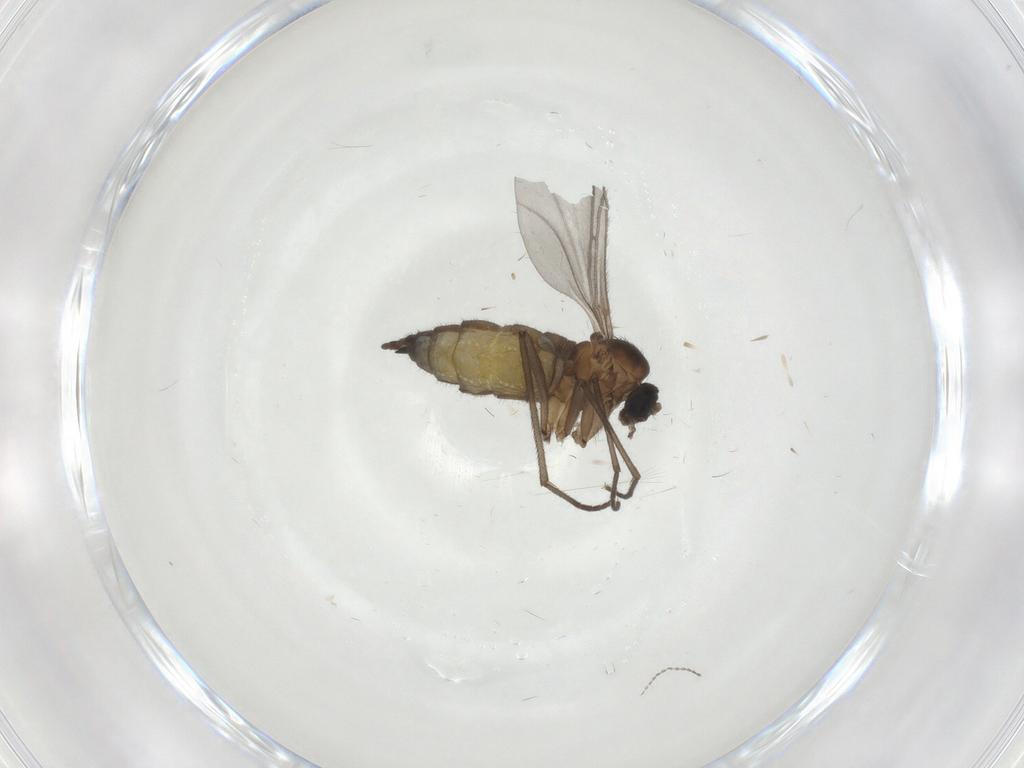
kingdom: Animalia
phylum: Arthropoda
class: Insecta
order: Diptera
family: Sciaridae
